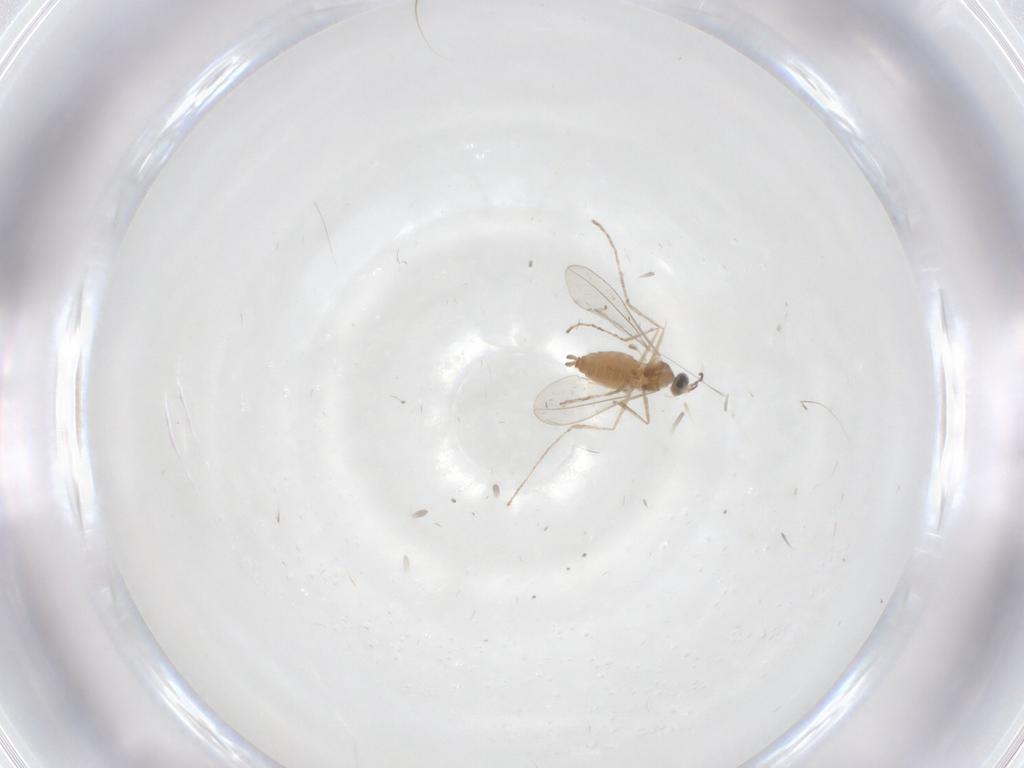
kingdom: Animalia
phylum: Arthropoda
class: Insecta
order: Diptera
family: Cecidomyiidae
